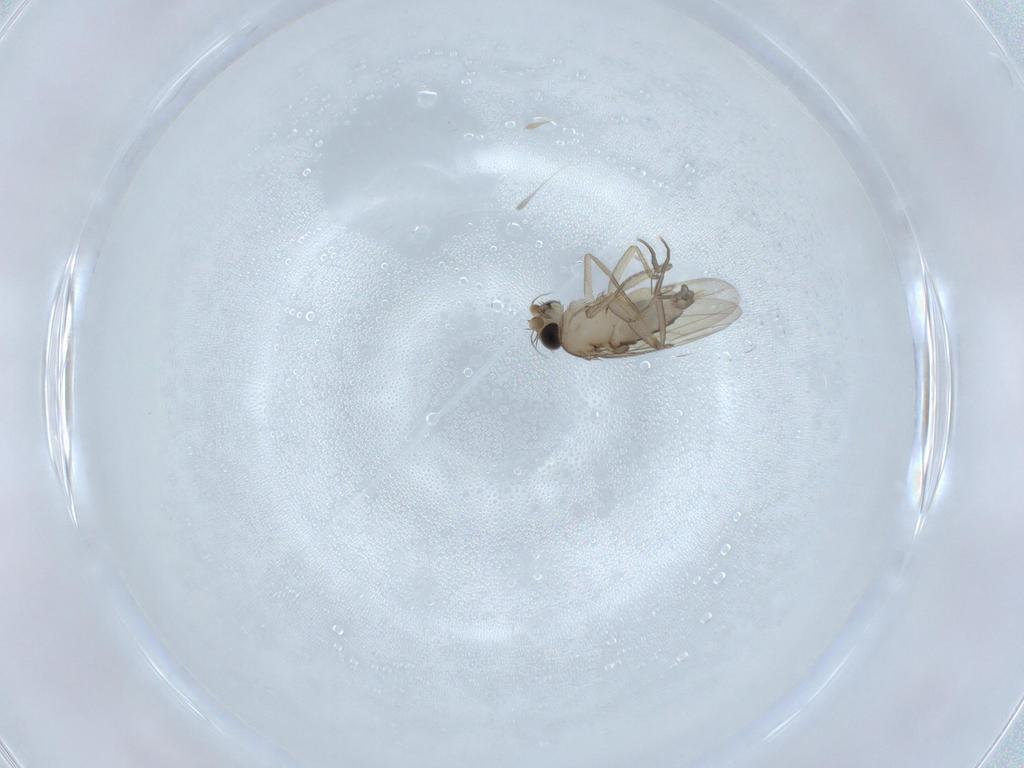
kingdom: Animalia
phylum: Arthropoda
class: Insecta
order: Diptera
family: Phoridae
